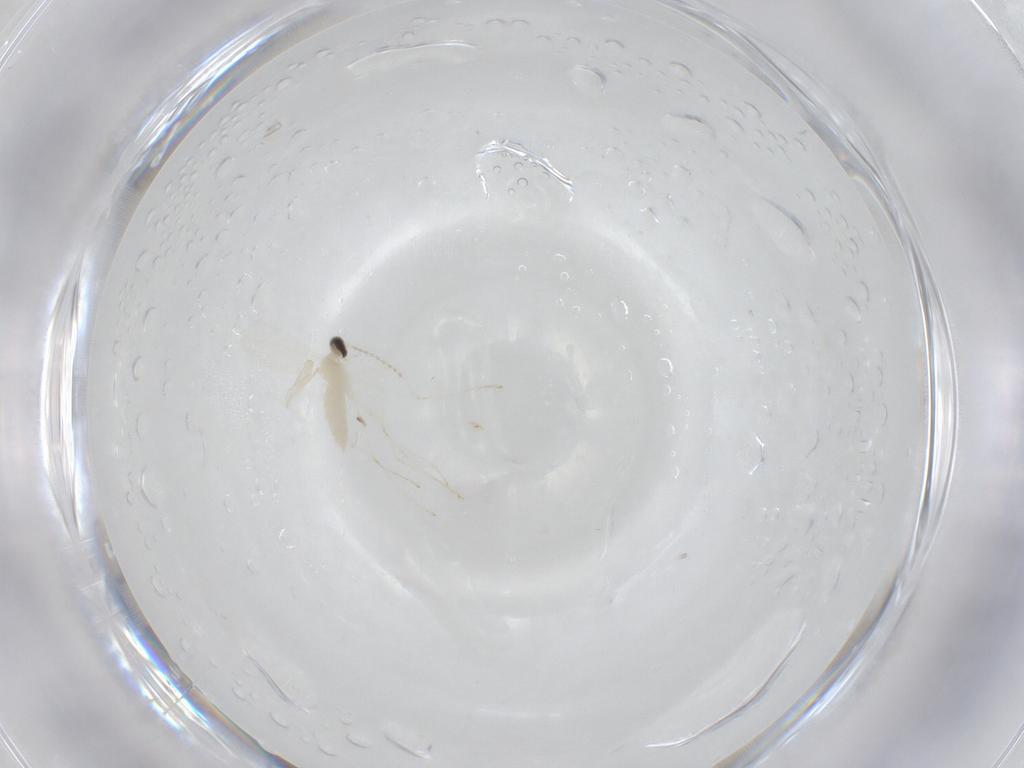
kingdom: Animalia
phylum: Arthropoda
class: Insecta
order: Diptera
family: Cecidomyiidae
